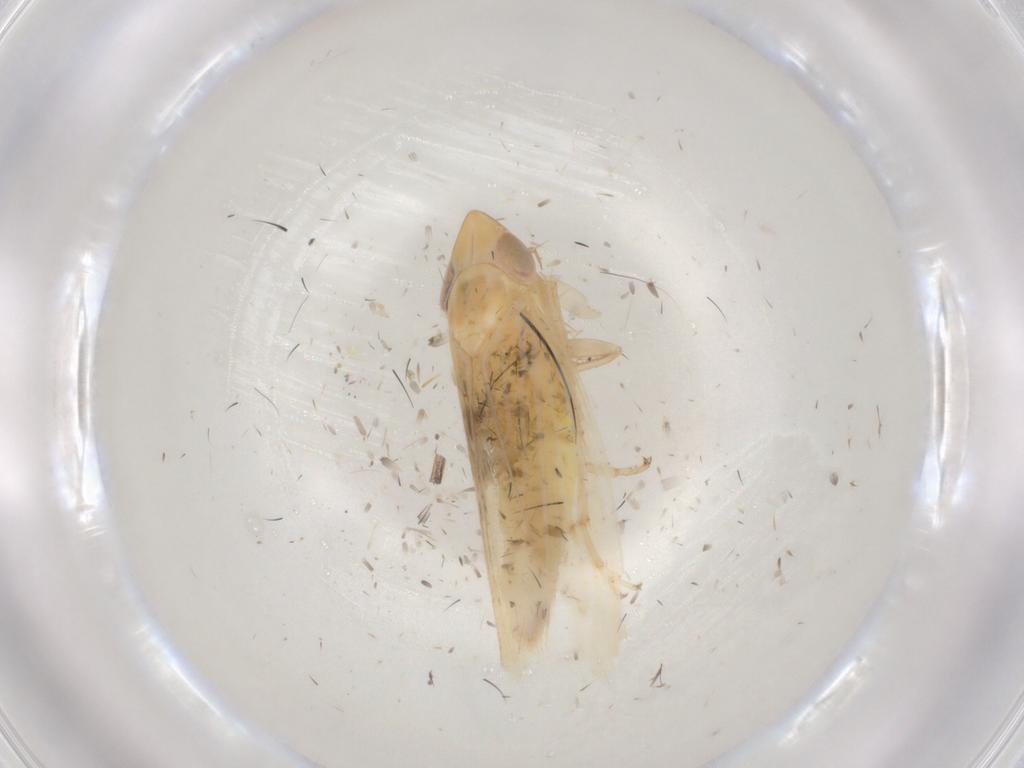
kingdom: Animalia
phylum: Arthropoda
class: Insecta
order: Hemiptera
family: Cicadellidae
